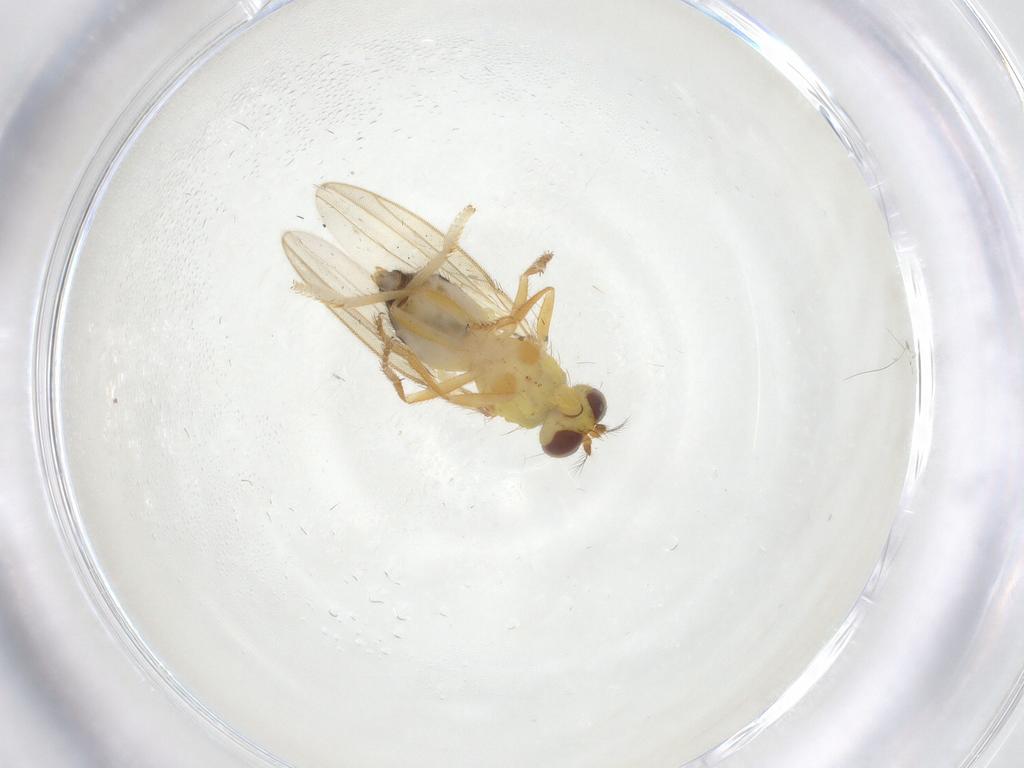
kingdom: Animalia
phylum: Arthropoda
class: Insecta
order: Diptera
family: Periscelididae
